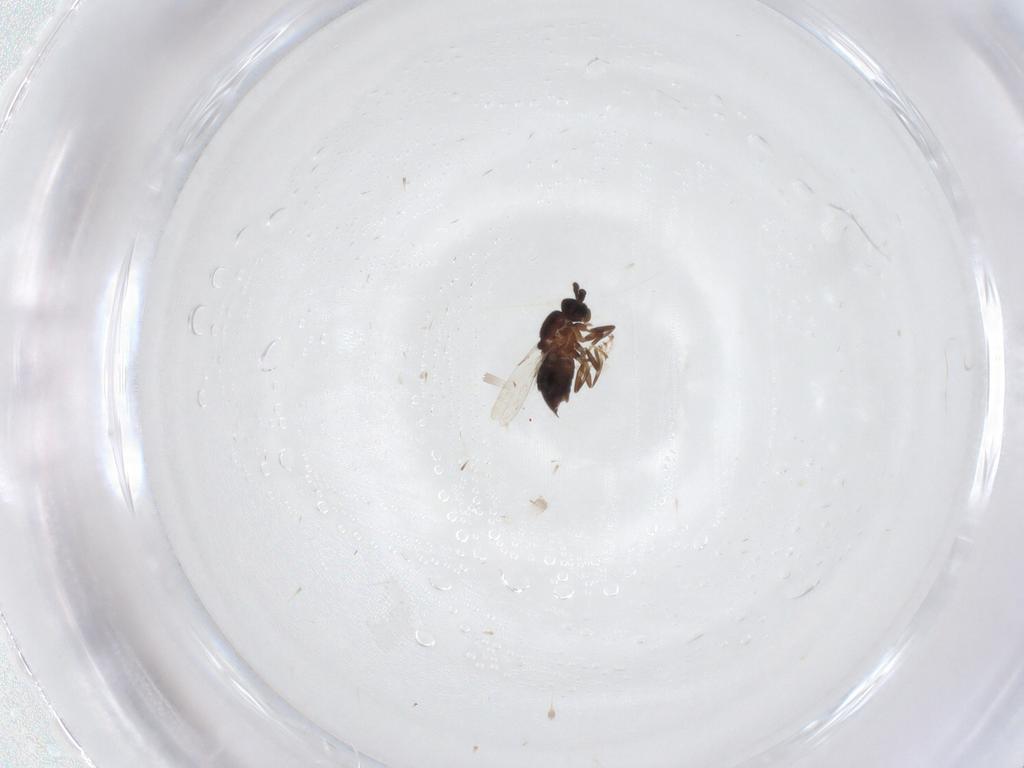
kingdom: Animalia
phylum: Arthropoda
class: Insecta
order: Diptera
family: Scatopsidae
